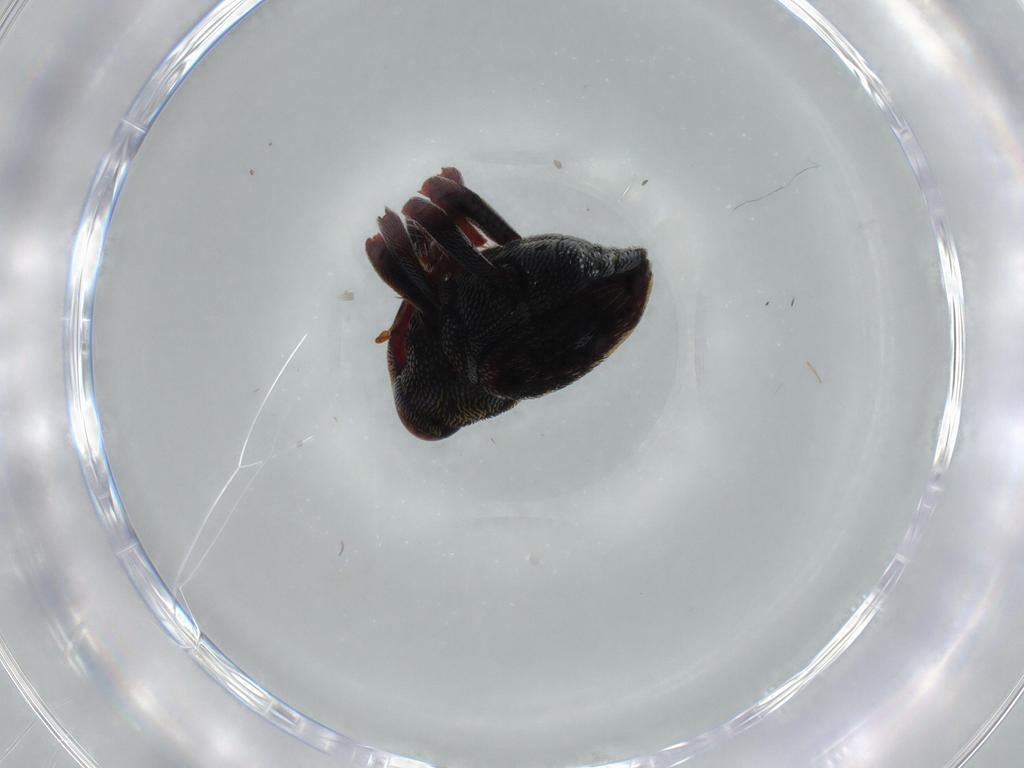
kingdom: Animalia
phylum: Arthropoda
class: Insecta
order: Coleoptera
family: Curculionidae
